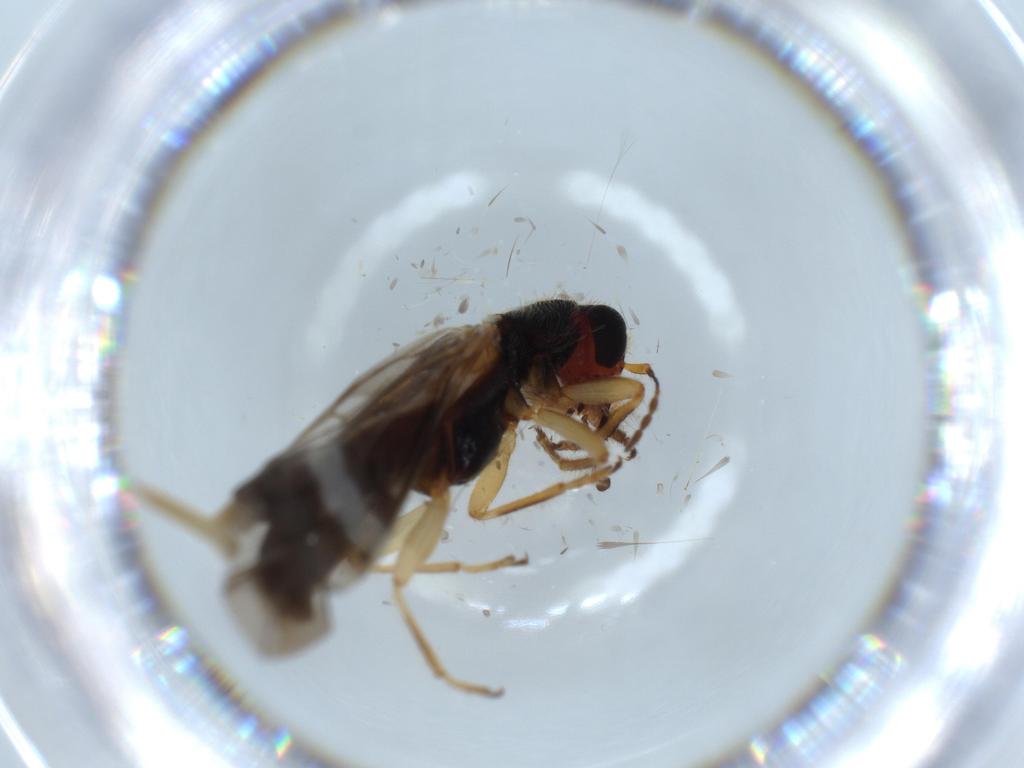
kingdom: Animalia
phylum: Arthropoda
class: Insecta
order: Coleoptera
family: Cleridae
